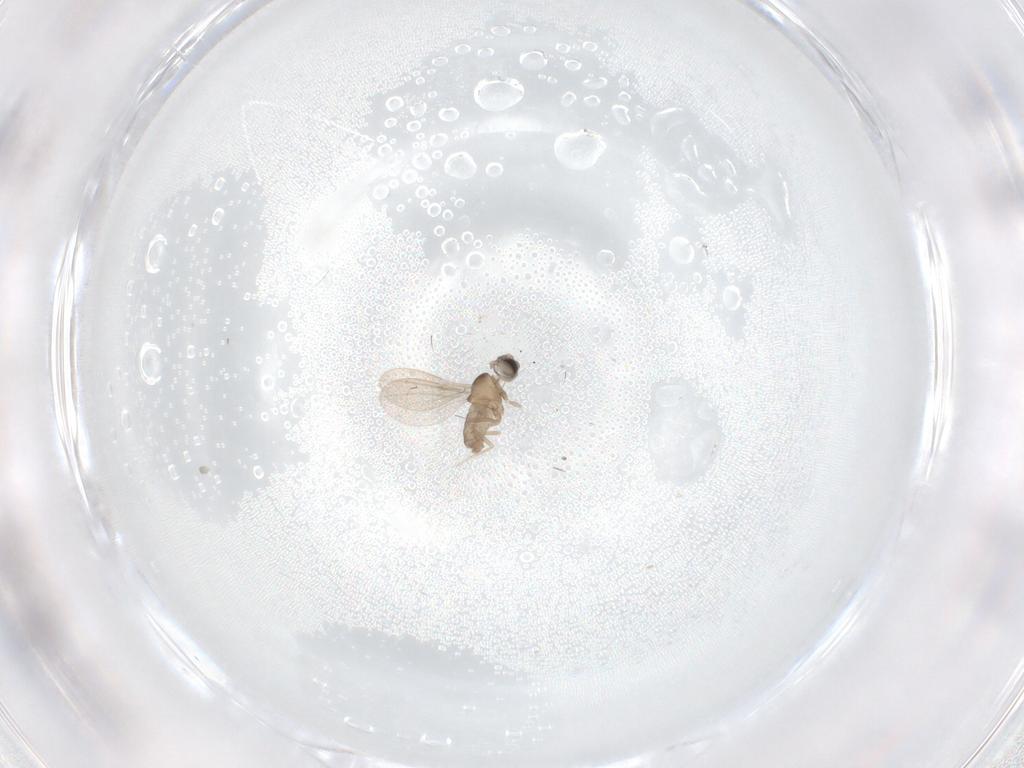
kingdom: Animalia
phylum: Arthropoda
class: Insecta
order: Diptera
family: Cecidomyiidae
